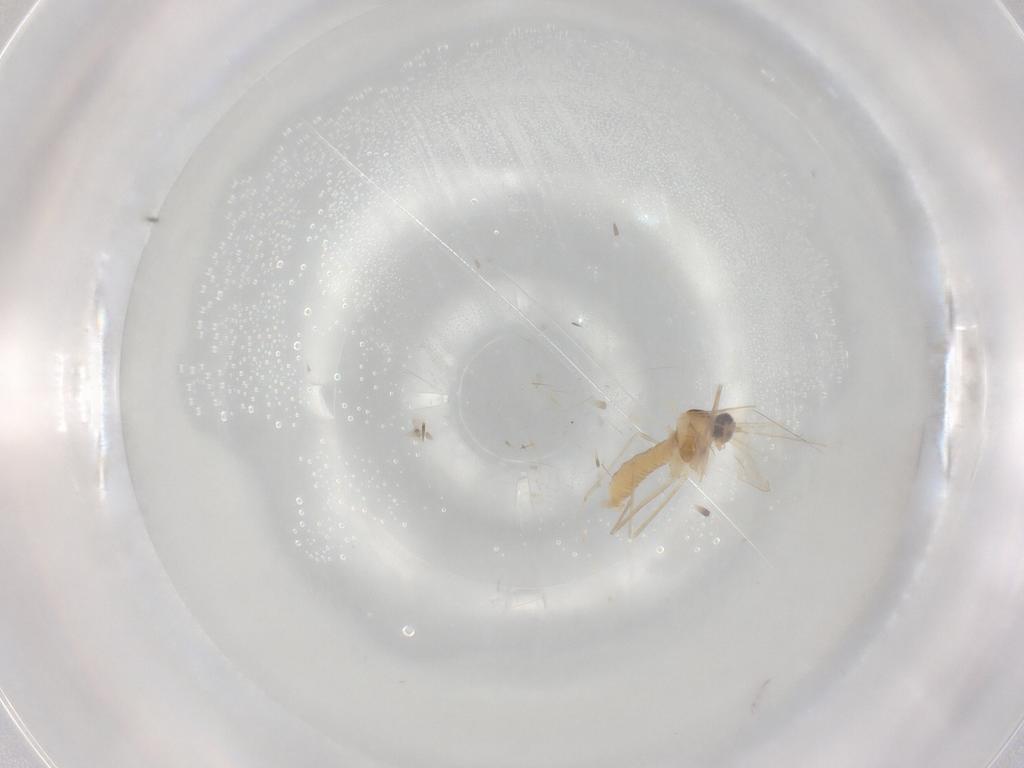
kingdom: Animalia
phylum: Arthropoda
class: Insecta
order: Diptera
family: Cecidomyiidae
